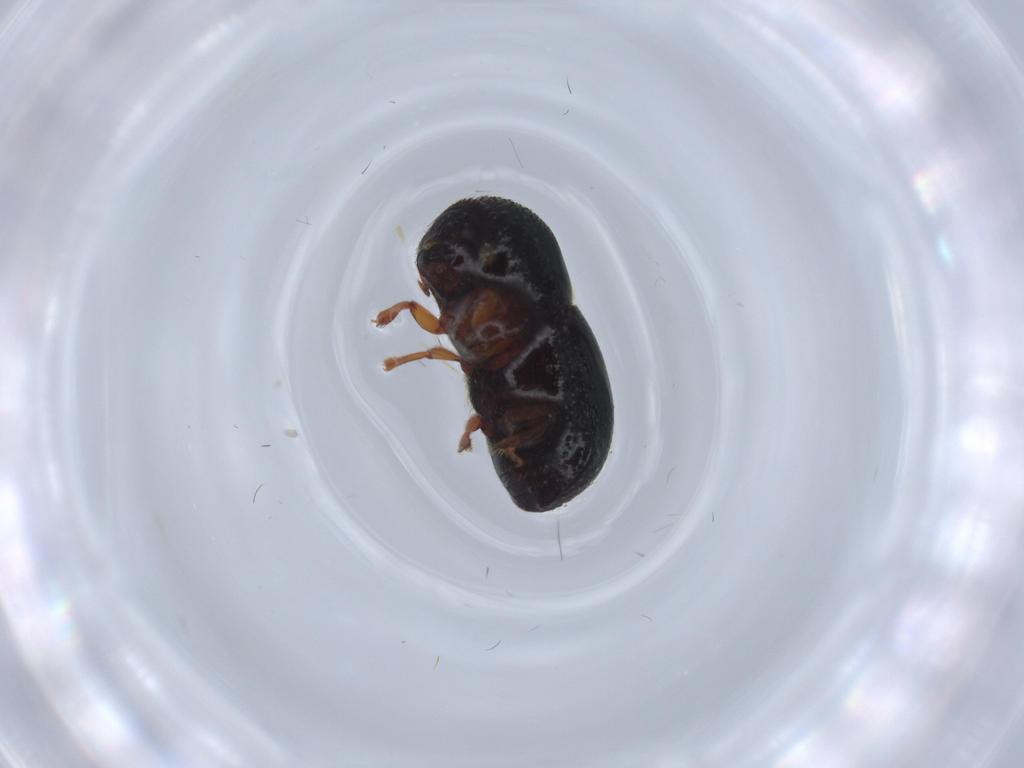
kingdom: Animalia
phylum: Arthropoda
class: Insecta
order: Coleoptera
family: Chrysomelidae
